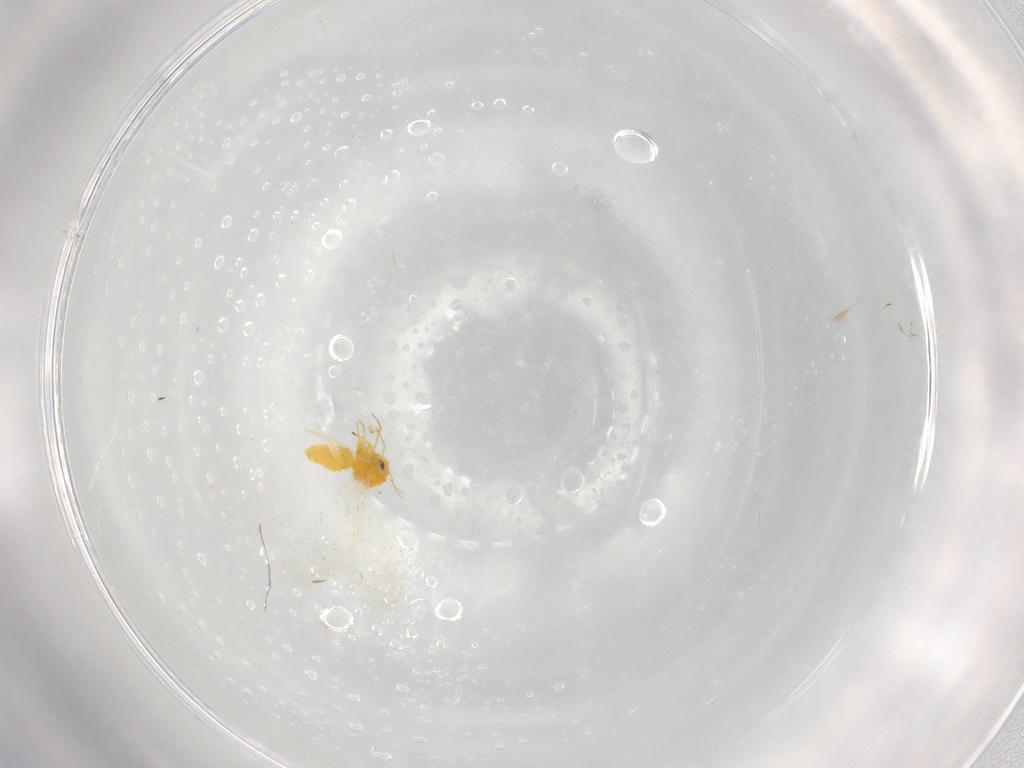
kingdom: Animalia
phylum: Arthropoda
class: Insecta
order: Hemiptera
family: Cicadellidae
